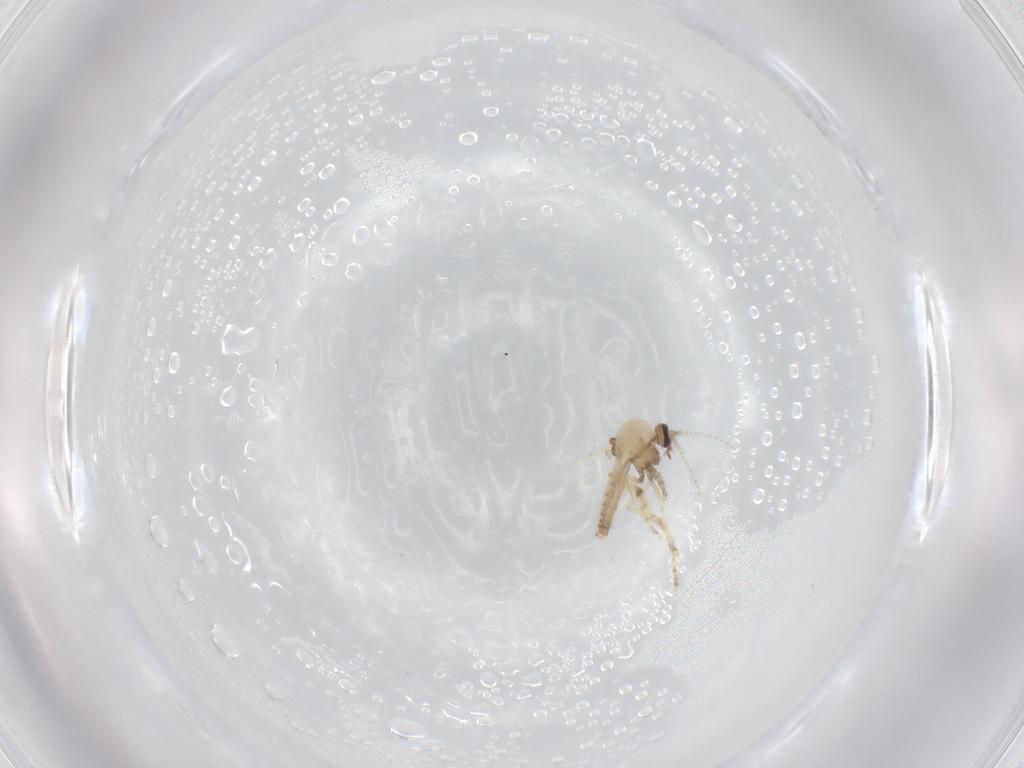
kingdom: Animalia
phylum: Arthropoda
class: Insecta
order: Diptera
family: Ceratopogonidae
